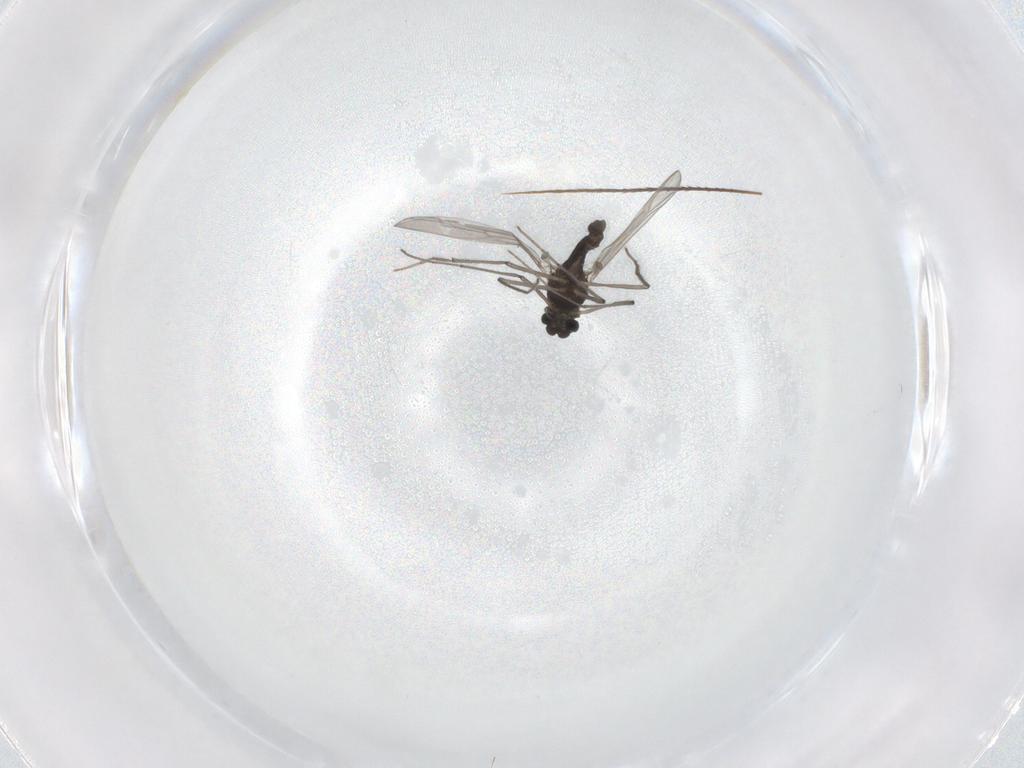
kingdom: Animalia
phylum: Arthropoda
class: Insecta
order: Diptera
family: Chironomidae
